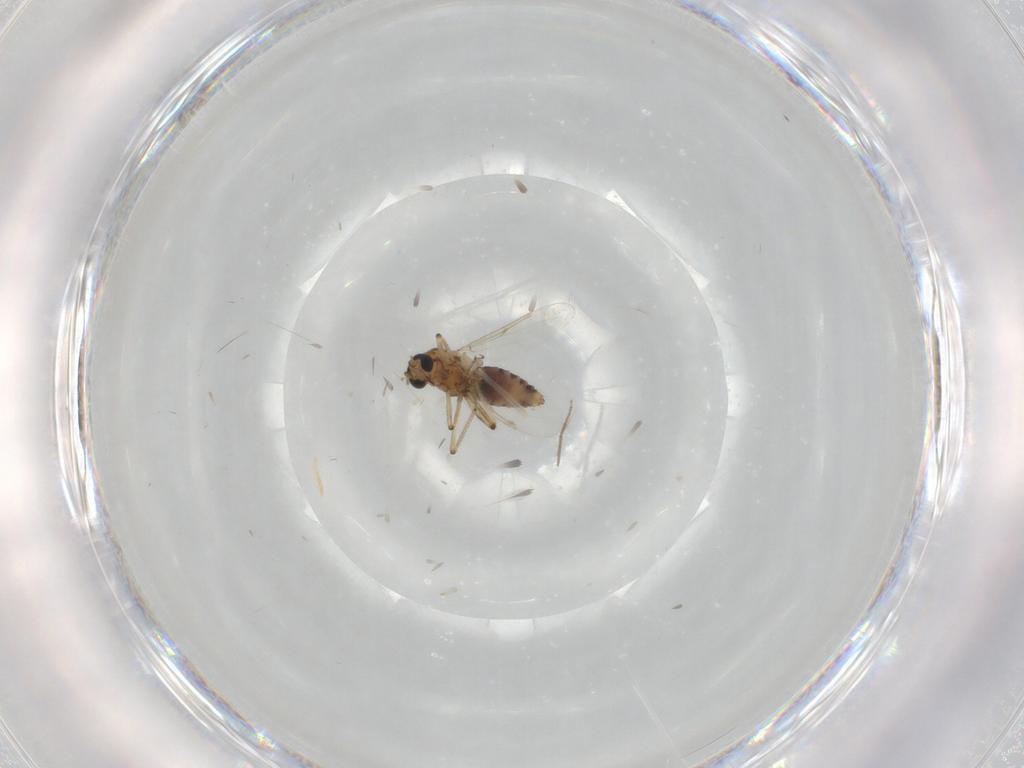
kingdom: Animalia
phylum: Arthropoda
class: Insecta
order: Diptera
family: Ceratopogonidae
